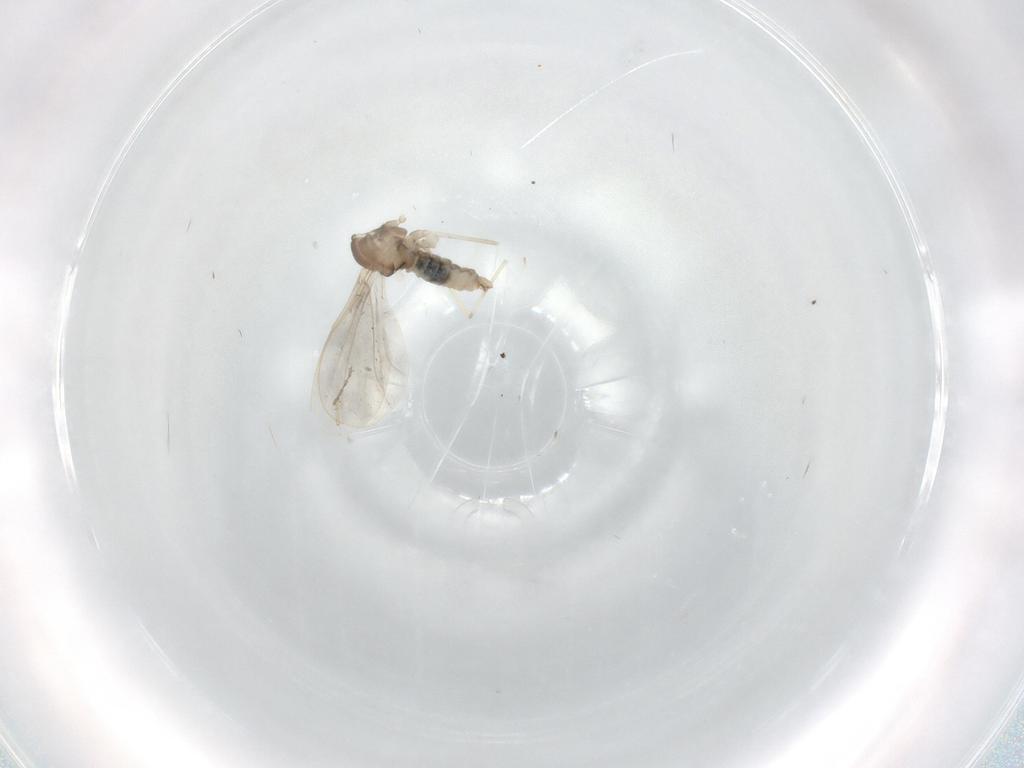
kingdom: Animalia
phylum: Arthropoda
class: Insecta
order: Diptera
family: Cecidomyiidae
